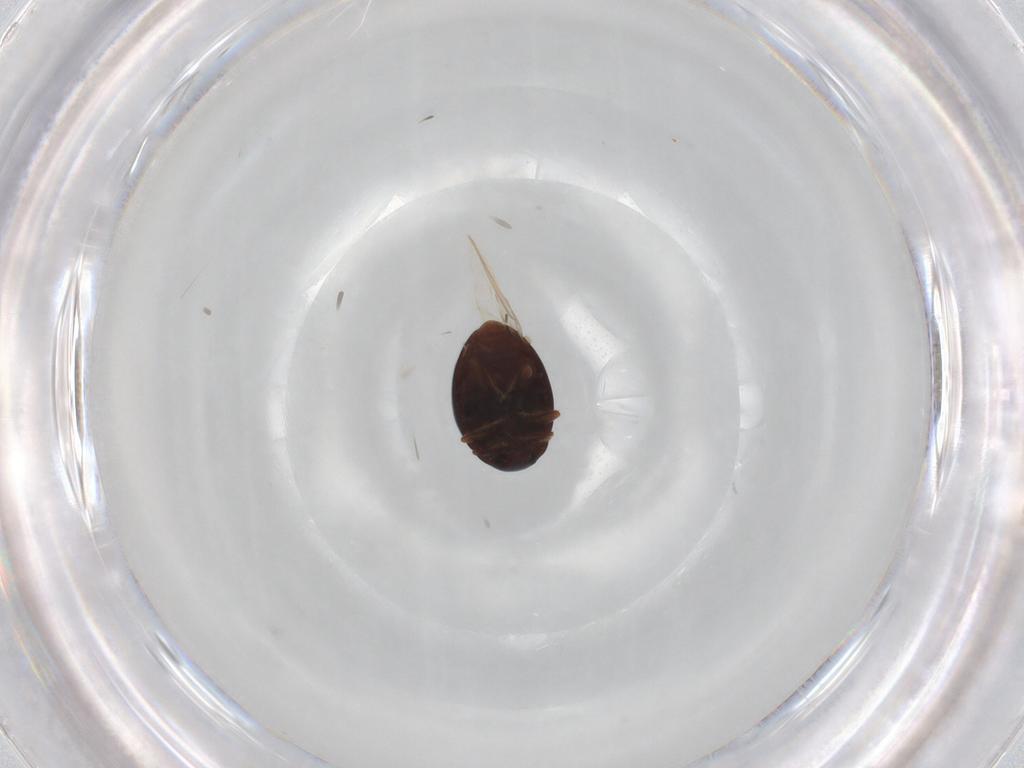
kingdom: Animalia
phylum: Arthropoda
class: Insecta
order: Coleoptera
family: Coccinellidae
